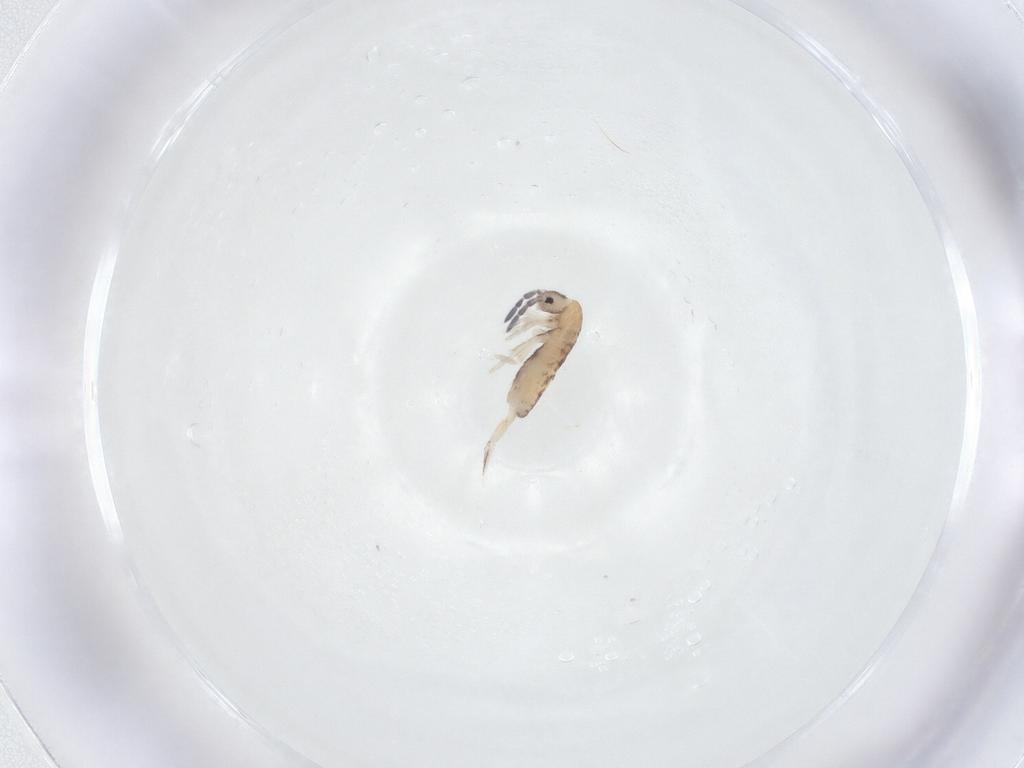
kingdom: Animalia
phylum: Arthropoda
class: Collembola
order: Entomobryomorpha
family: Entomobryidae
